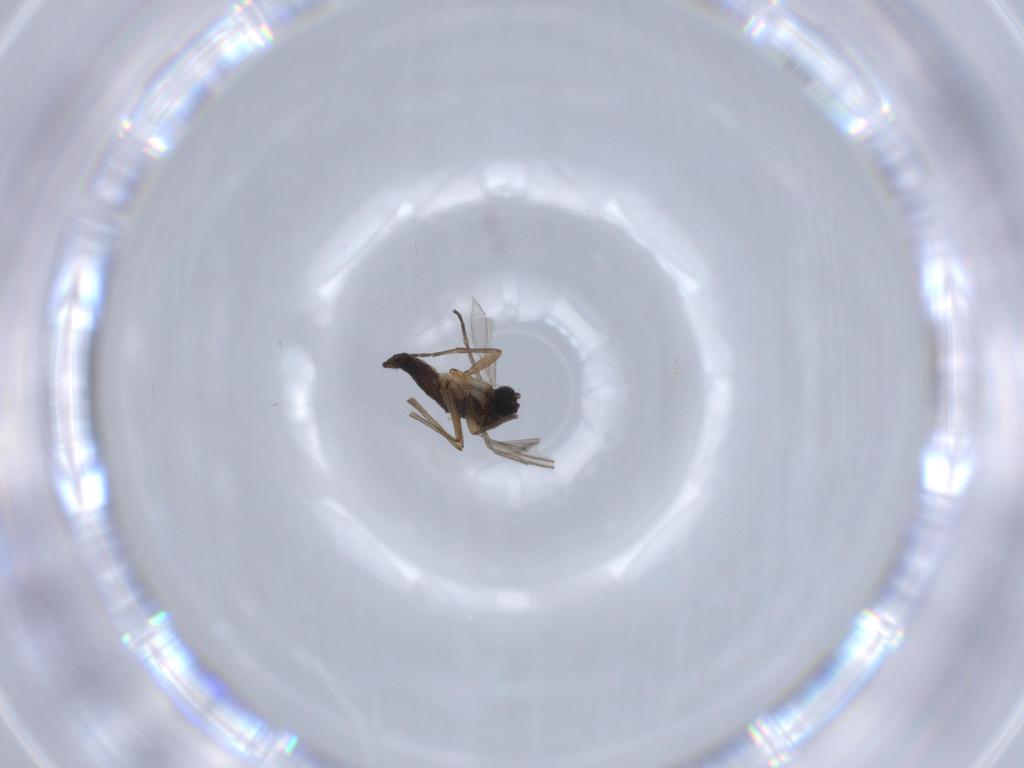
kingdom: Animalia
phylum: Arthropoda
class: Insecta
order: Diptera
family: Sciaridae
